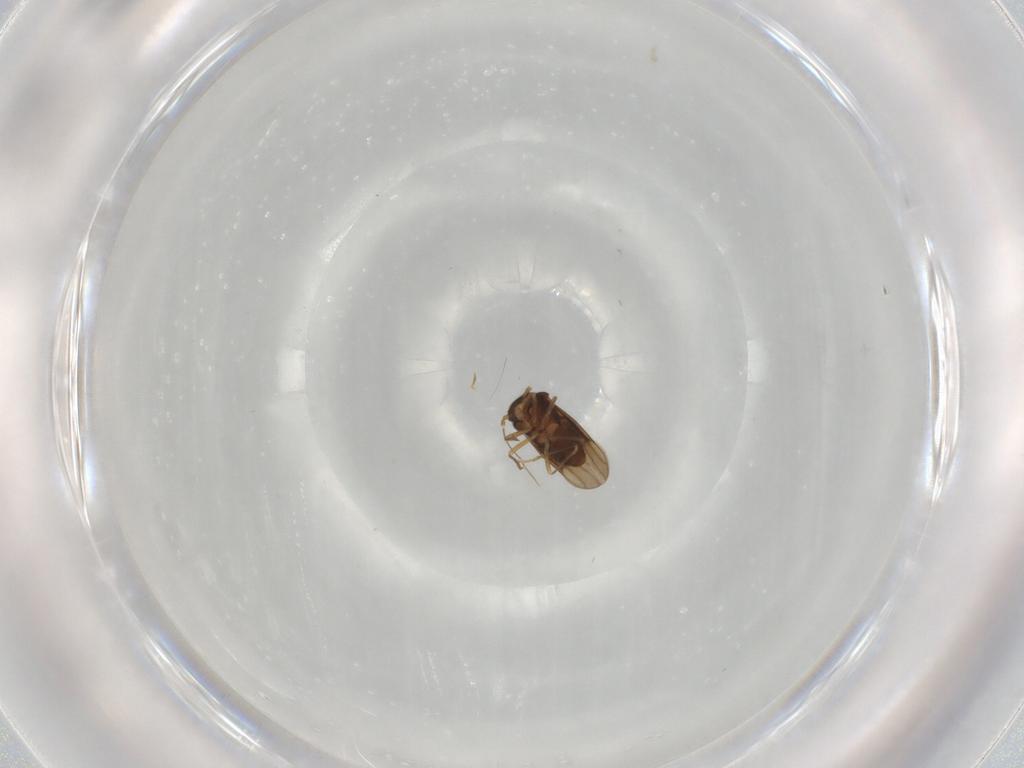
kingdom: Animalia
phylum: Arthropoda
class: Insecta
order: Hemiptera
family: Schizopteridae
